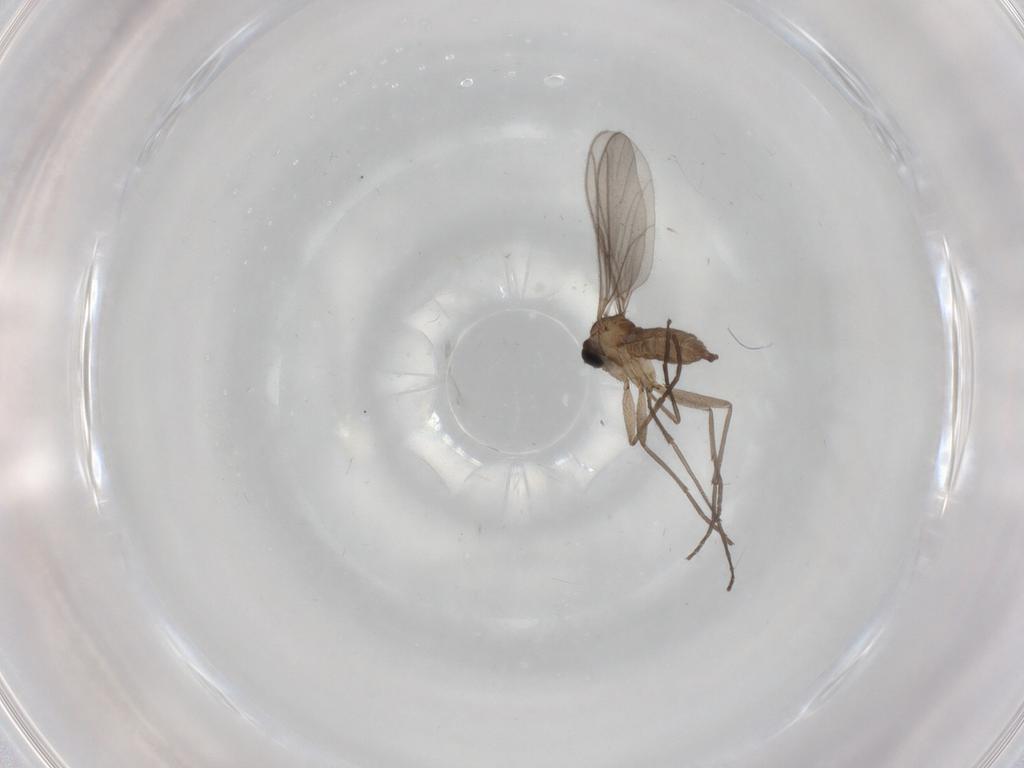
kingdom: Animalia
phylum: Arthropoda
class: Insecta
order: Diptera
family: Sciaridae
